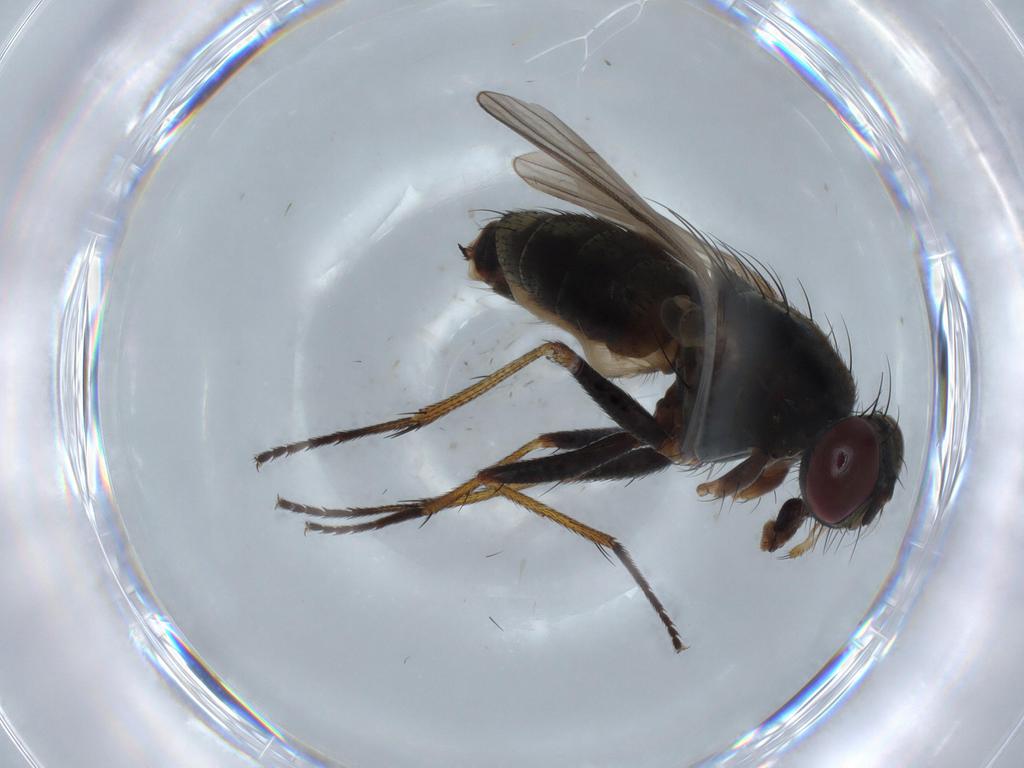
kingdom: Animalia
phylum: Arthropoda
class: Insecta
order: Diptera
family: Muscidae
